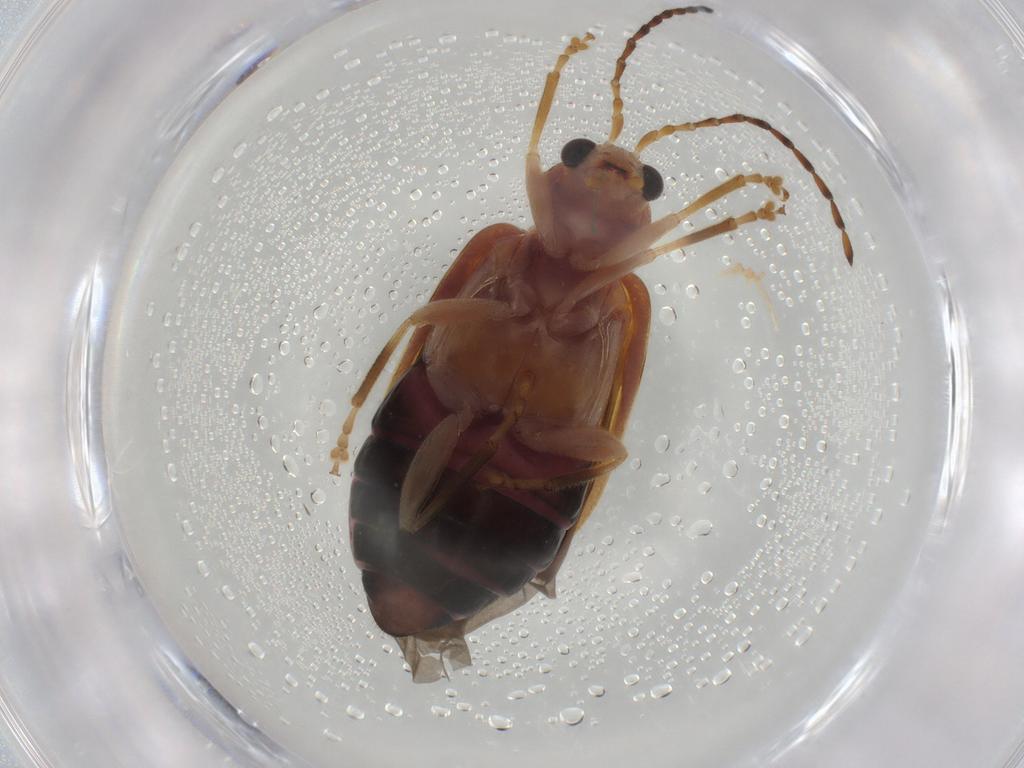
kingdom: Animalia
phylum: Arthropoda
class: Insecta
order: Coleoptera
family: Chrysomelidae
